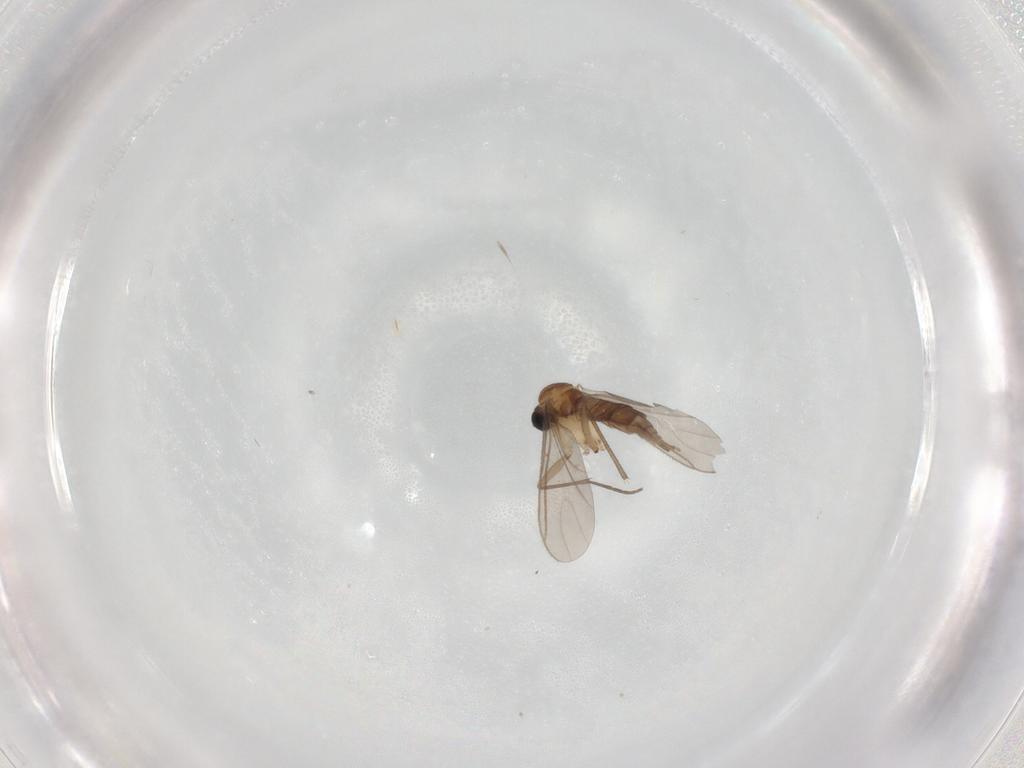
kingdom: Animalia
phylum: Arthropoda
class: Insecta
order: Diptera
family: Sciaridae
